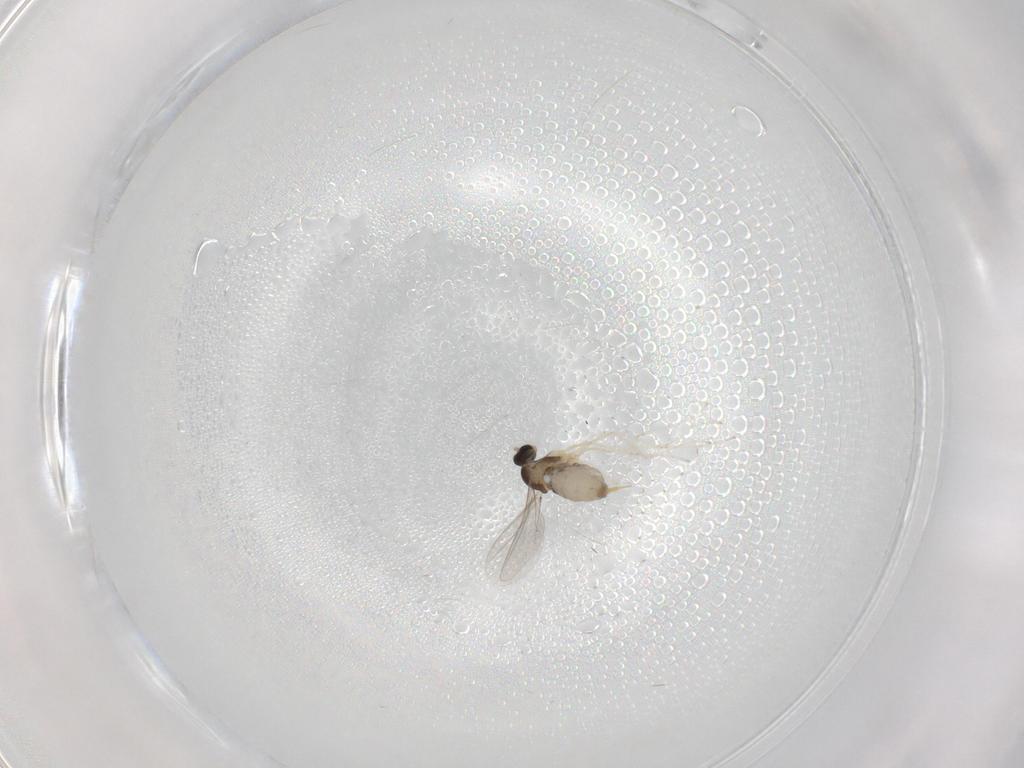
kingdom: Animalia
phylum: Arthropoda
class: Insecta
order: Diptera
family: Cecidomyiidae
